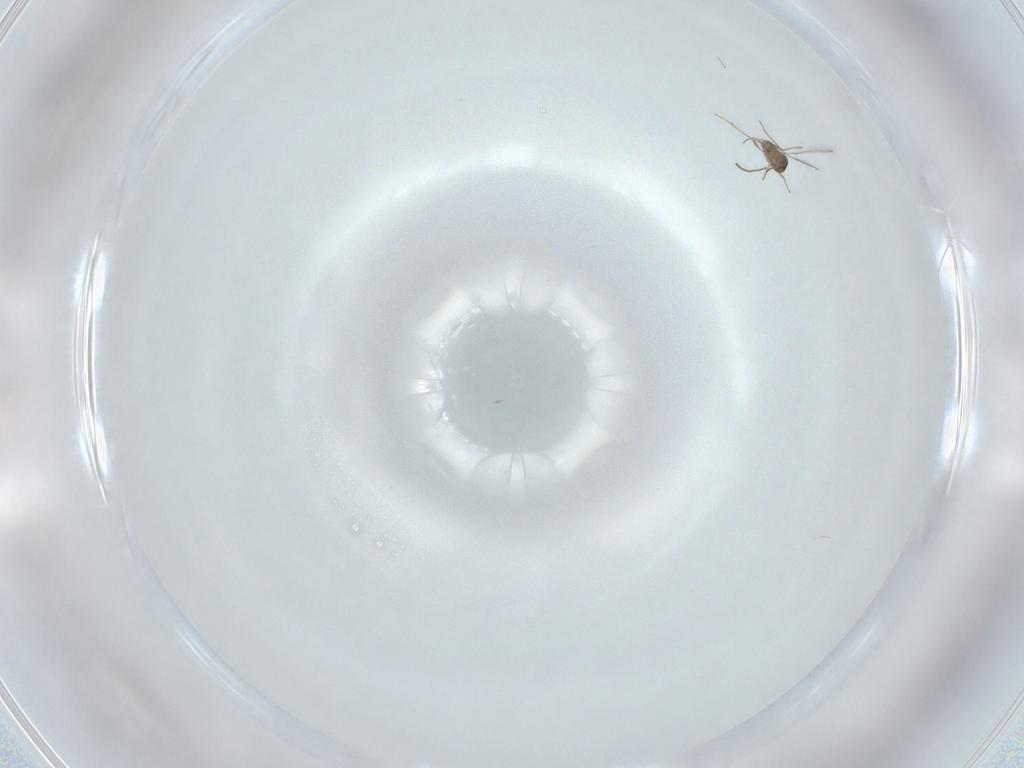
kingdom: Animalia
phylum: Arthropoda
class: Insecta
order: Hymenoptera
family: Mymaridae
